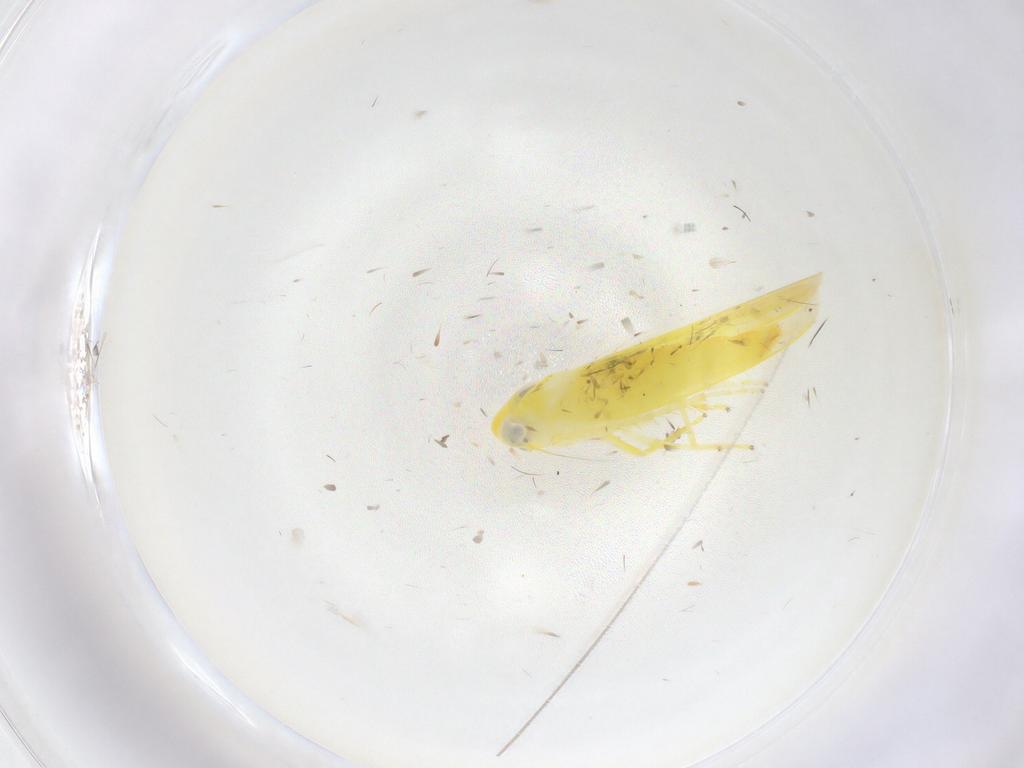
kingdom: Animalia
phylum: Arthropoda
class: Insecta
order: Hemiptera
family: Cicadellidae
